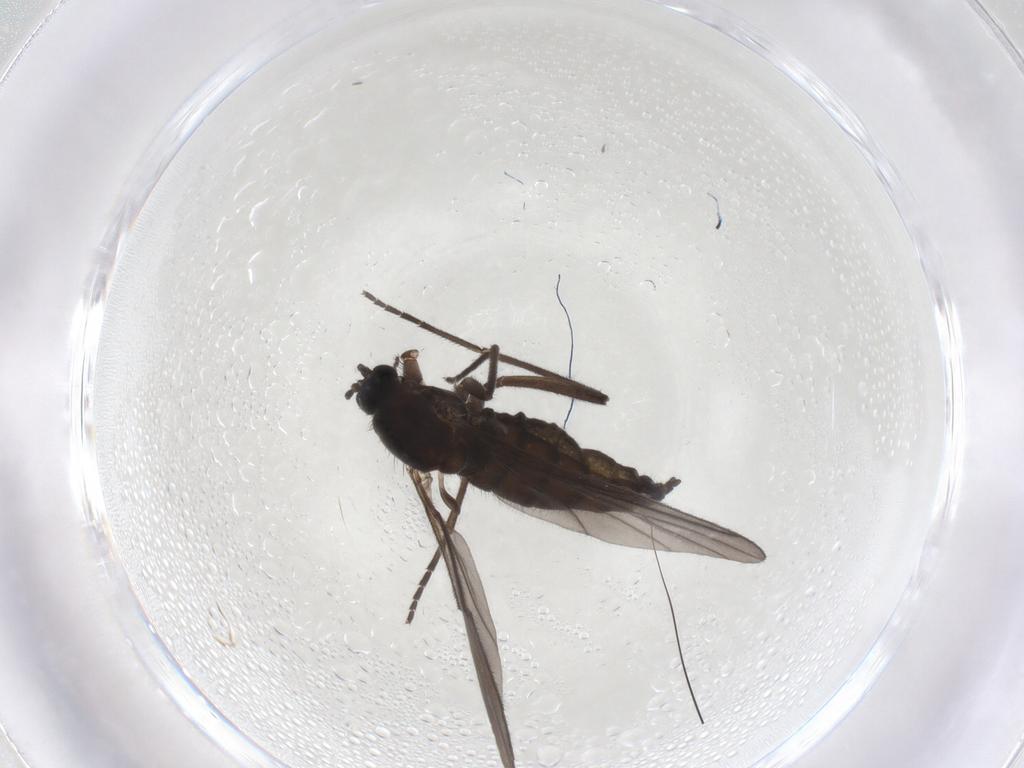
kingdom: Animalia
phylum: Arthropoda
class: Insecta
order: Diptera
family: Sciaridae
